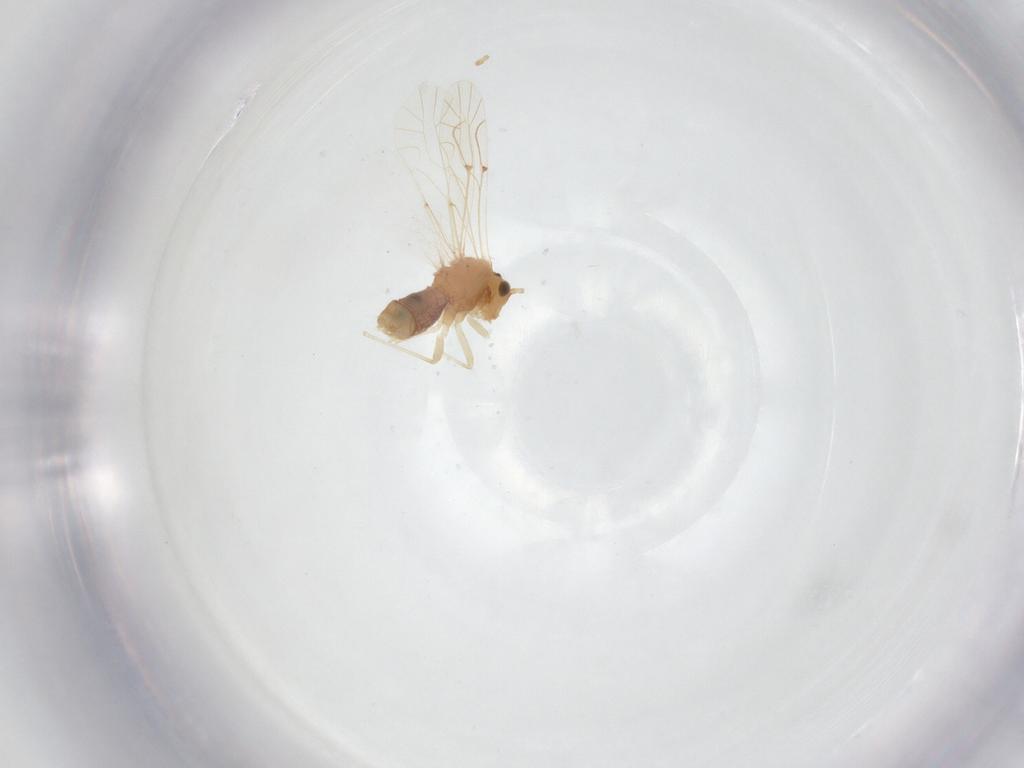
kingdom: Animalia
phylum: Arthropoda
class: Insecta
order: Psocodea
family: Lachesillidae
